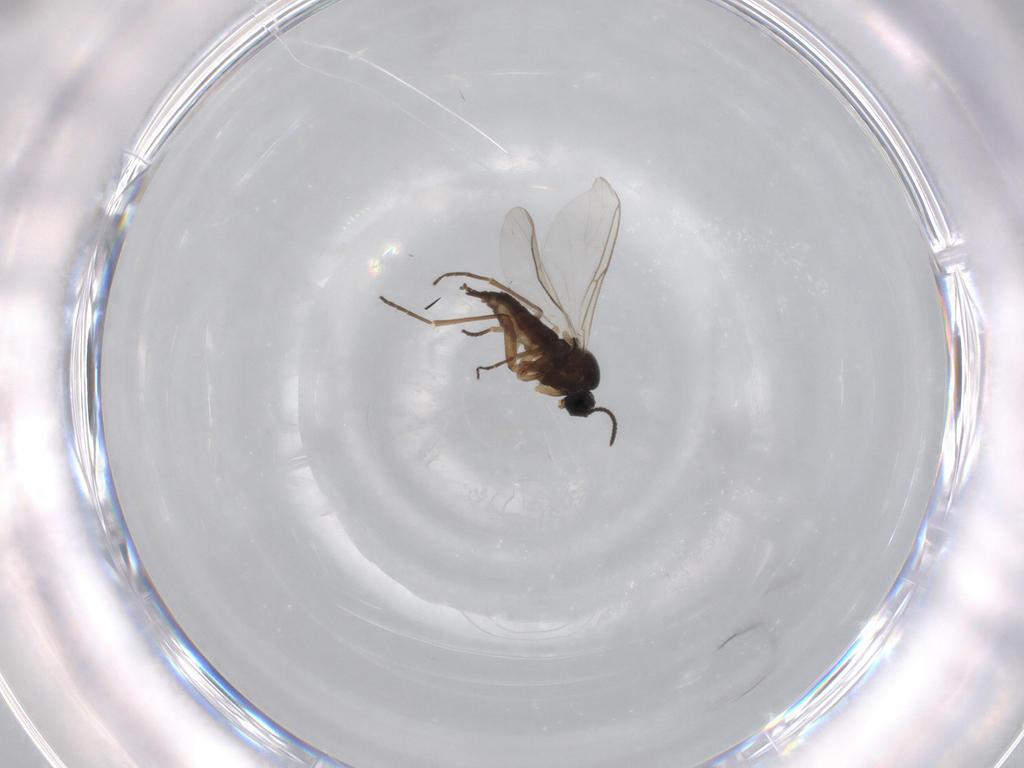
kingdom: Animalia
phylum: Arthropoda
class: Insecta
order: Diptera
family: Sciaridae
